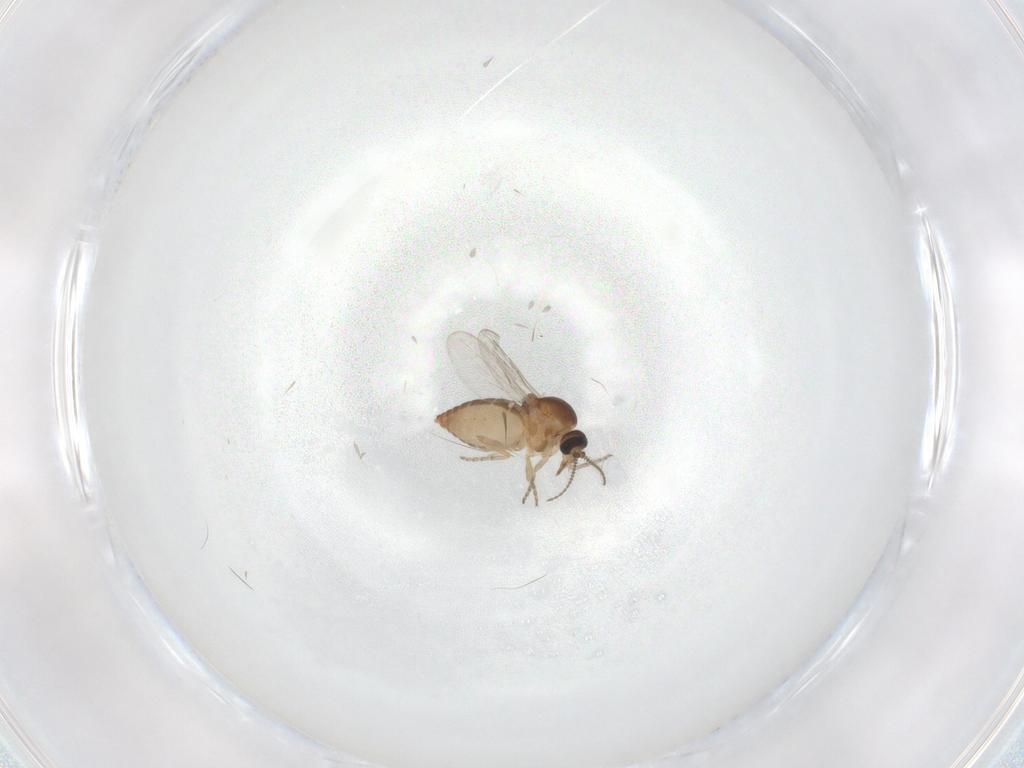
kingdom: Animalia
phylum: Arthropoda
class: Insecta
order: Diptera
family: Ceratopogonidae
